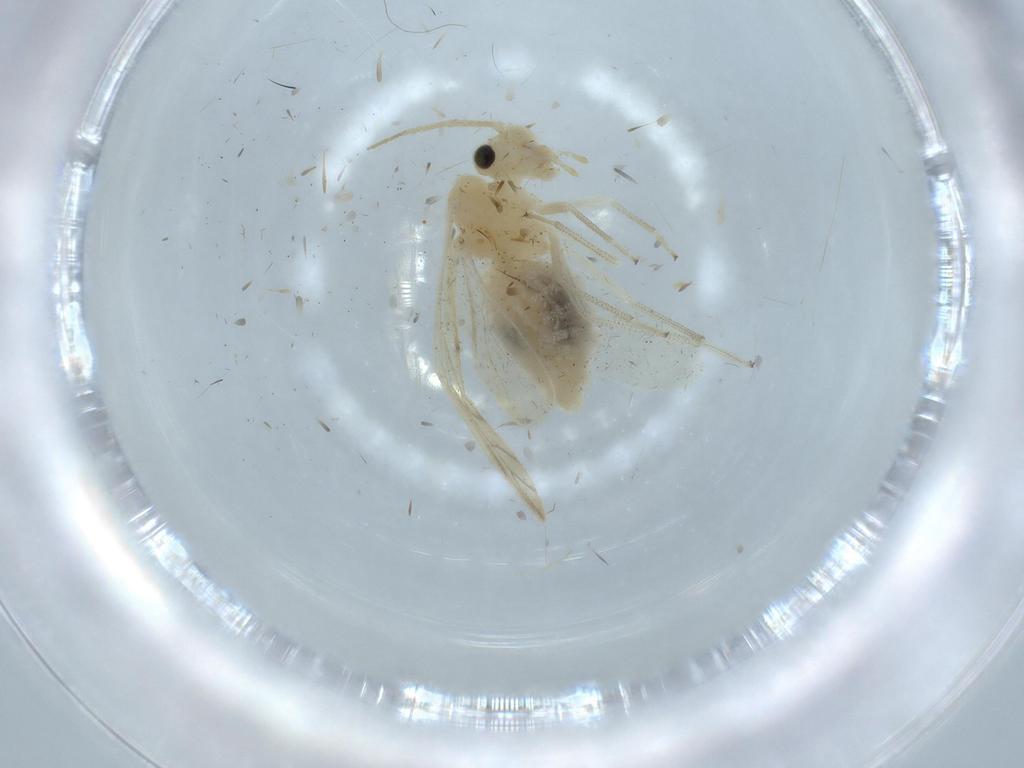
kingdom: Animalia
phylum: Arthropoda
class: Insecta
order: Psocodea
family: Caeciliusidae
